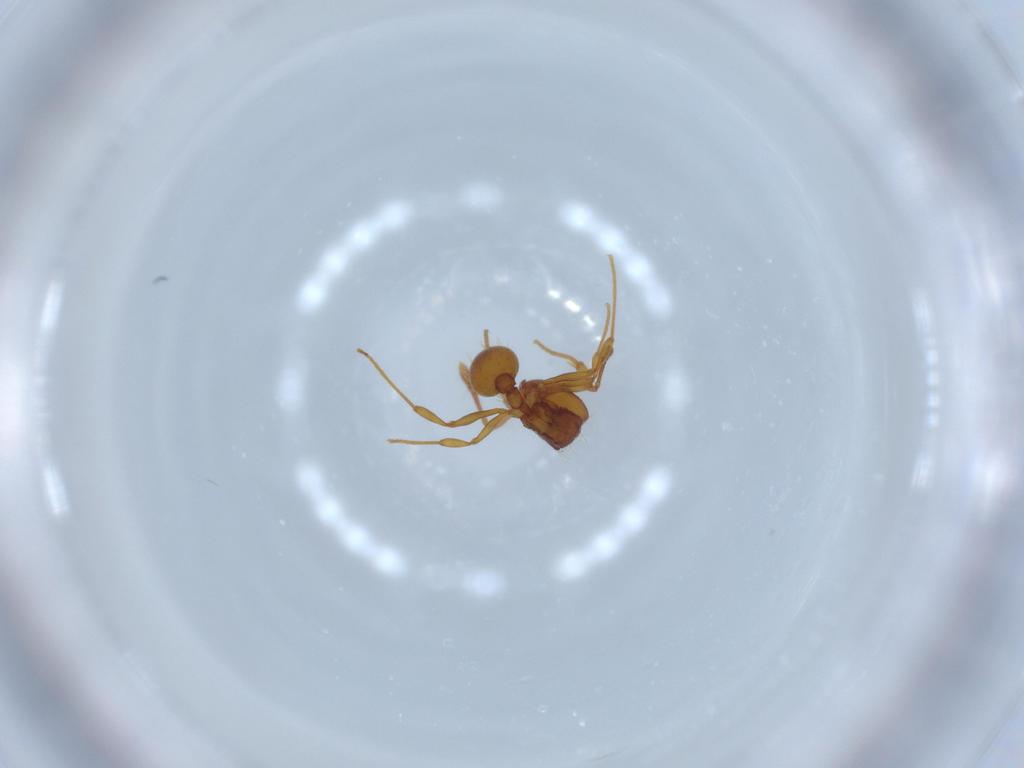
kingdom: Animalia
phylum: Arthropoda
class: Insecta
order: Hymenoptera
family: Formicidae
